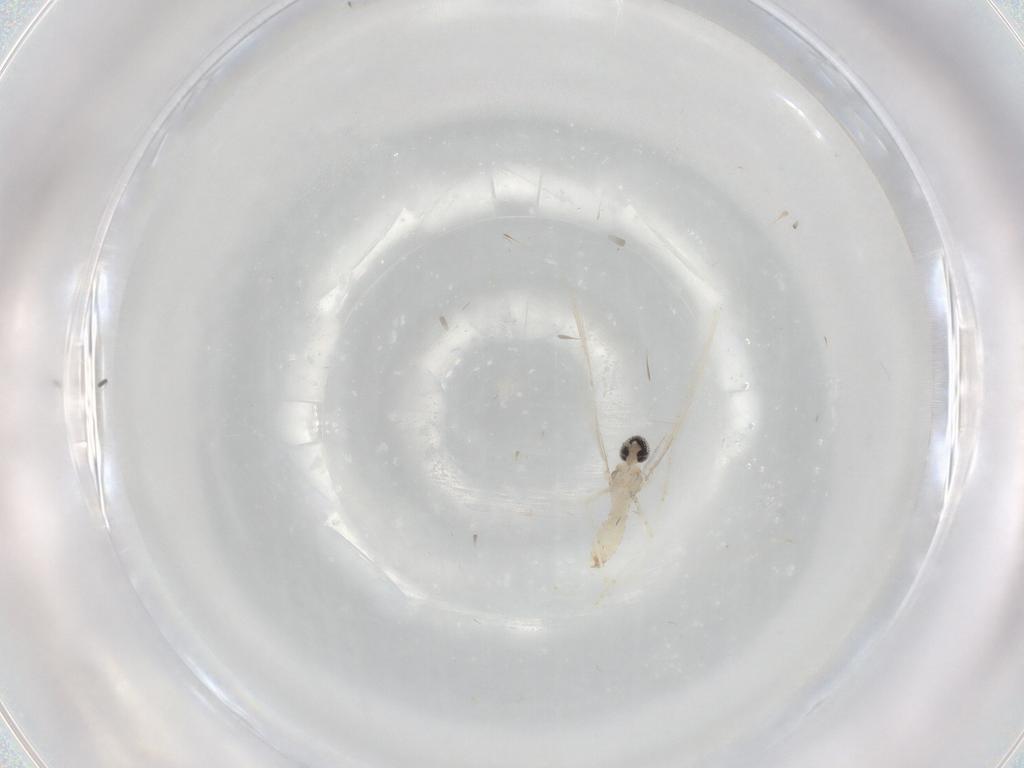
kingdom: Animalia
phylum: Arthropoda
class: Insecta
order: Diptera
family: Cecidomyiidae
